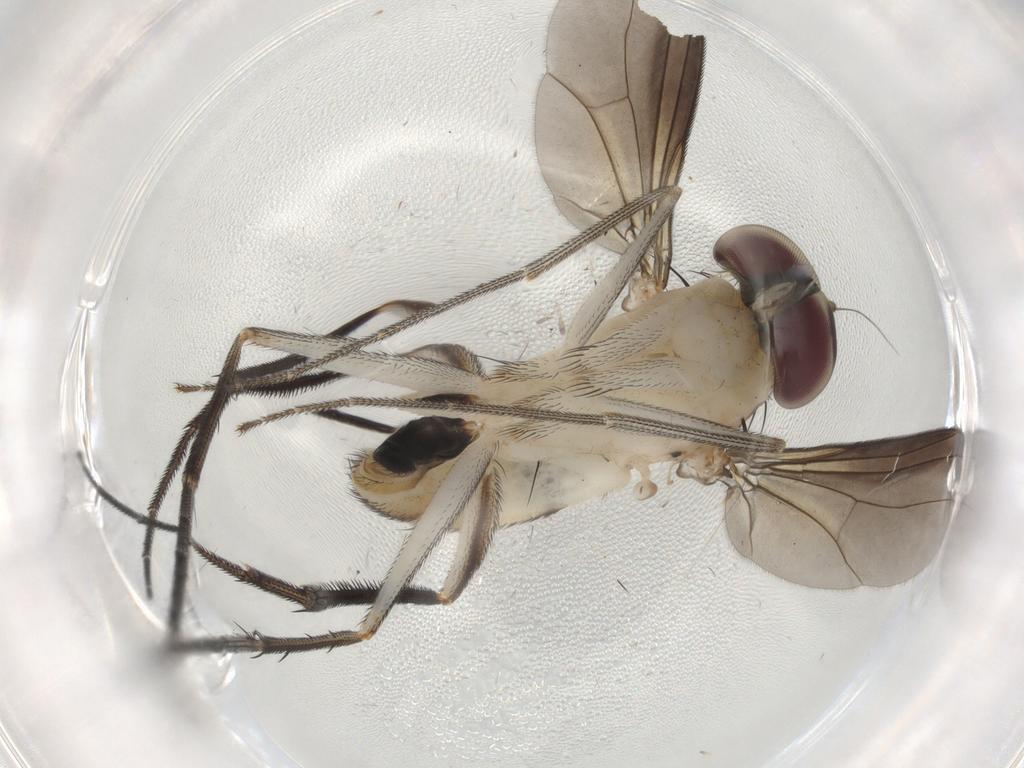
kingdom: Animalia
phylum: Arthropoda
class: Insecta
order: Diptera
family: Dolichopodidae
